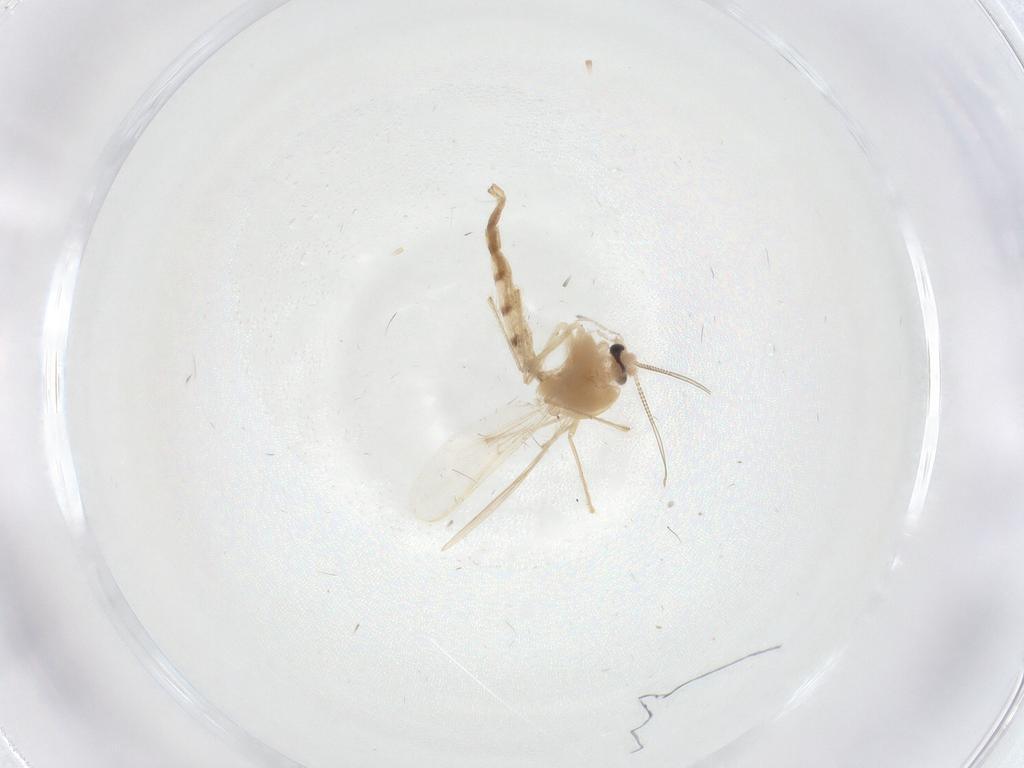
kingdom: Animalia
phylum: Arthropoda
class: Insecta
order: Diptera
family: Chironomidae
